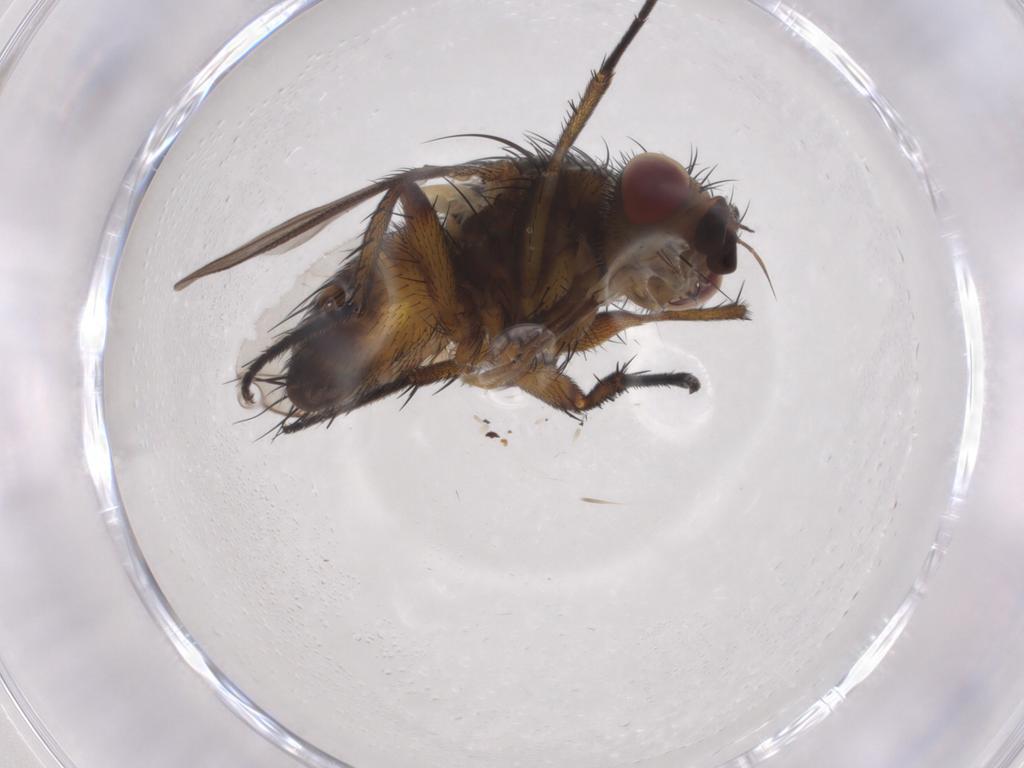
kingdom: Animalia
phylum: Arthropoda
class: Insecta
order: Diptera
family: Tachinidae
